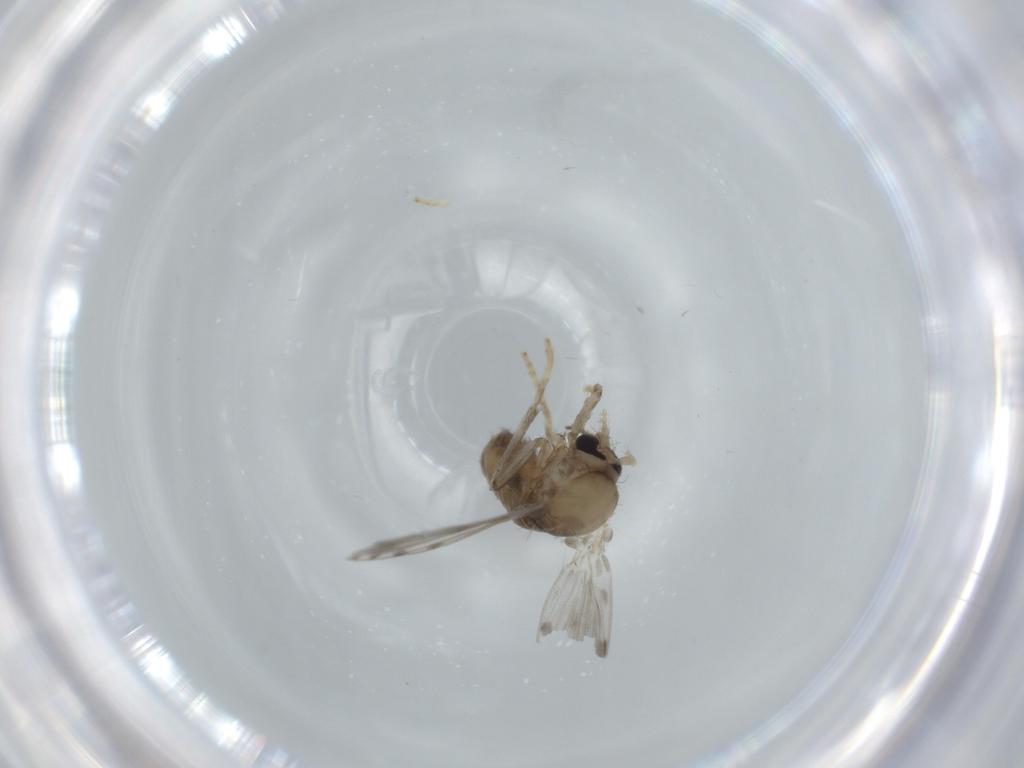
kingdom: Animalia
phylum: Arthropoda
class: Insecta
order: Diptera
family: Psychodidae
